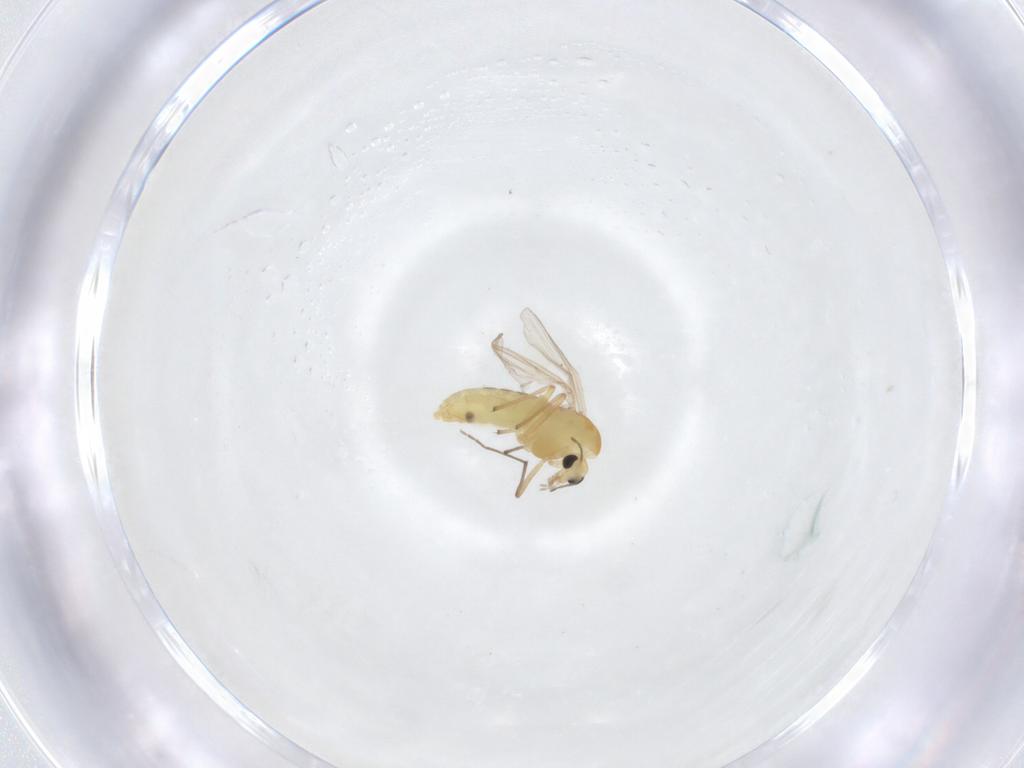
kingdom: Animalia
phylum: Arthropoda
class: Insecta
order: Diptera
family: Chironomidae
